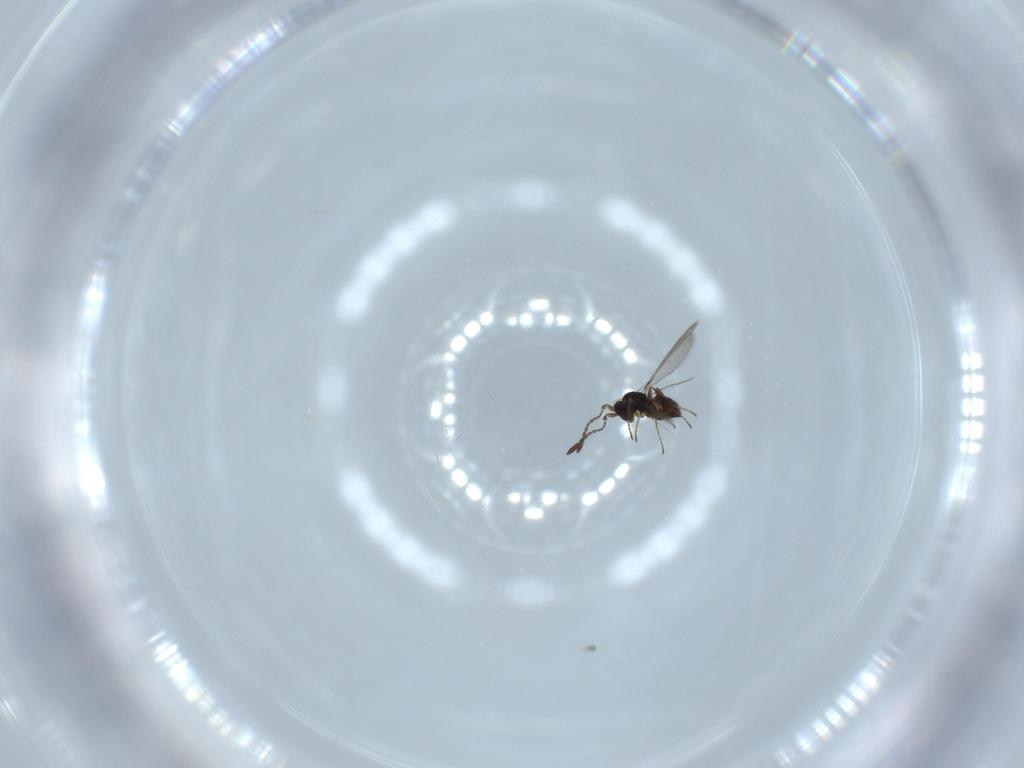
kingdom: Animalia
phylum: Arthropoda
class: Insecta
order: Hymenoptera
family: Mymaridae
